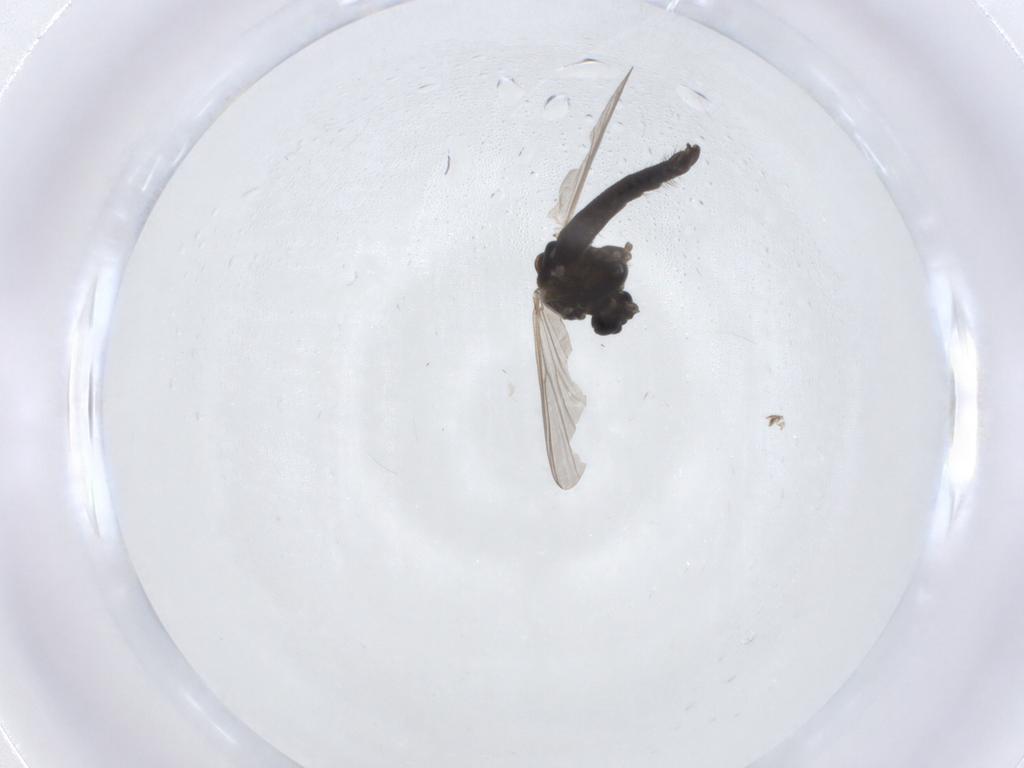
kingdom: Animalia
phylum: Arthropoda
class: Insecta
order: Diptera
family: Chironomidae
